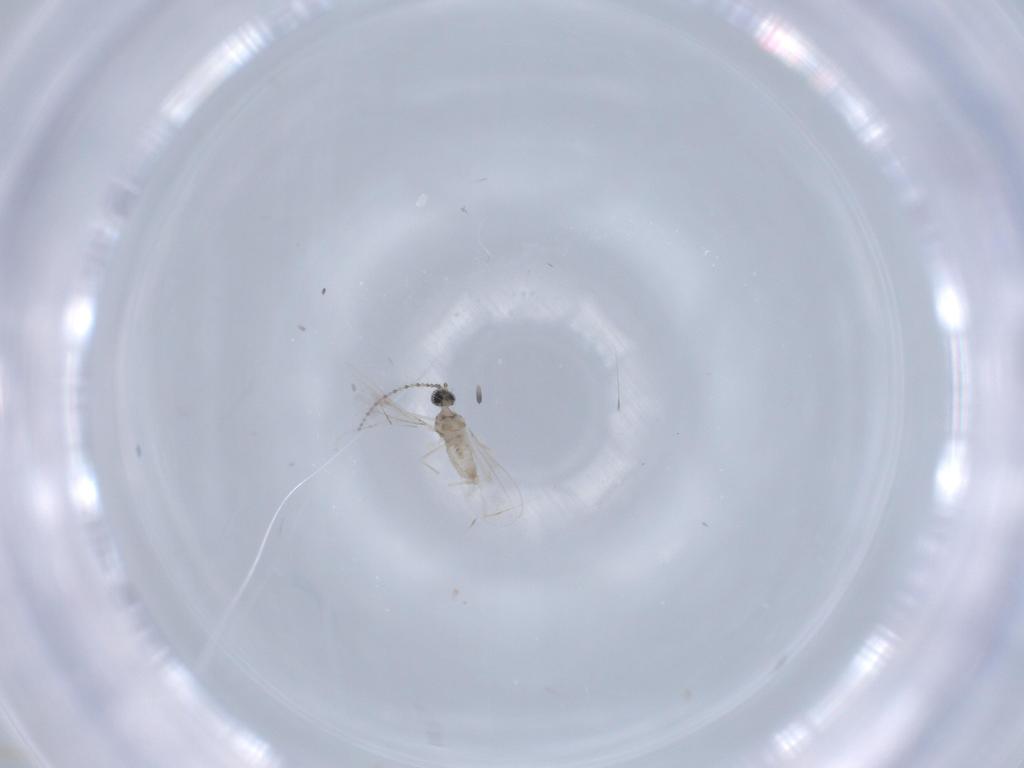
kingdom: Animalia
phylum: Arthropoda
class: Insecta
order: Diptera
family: Cecidomyiidae
